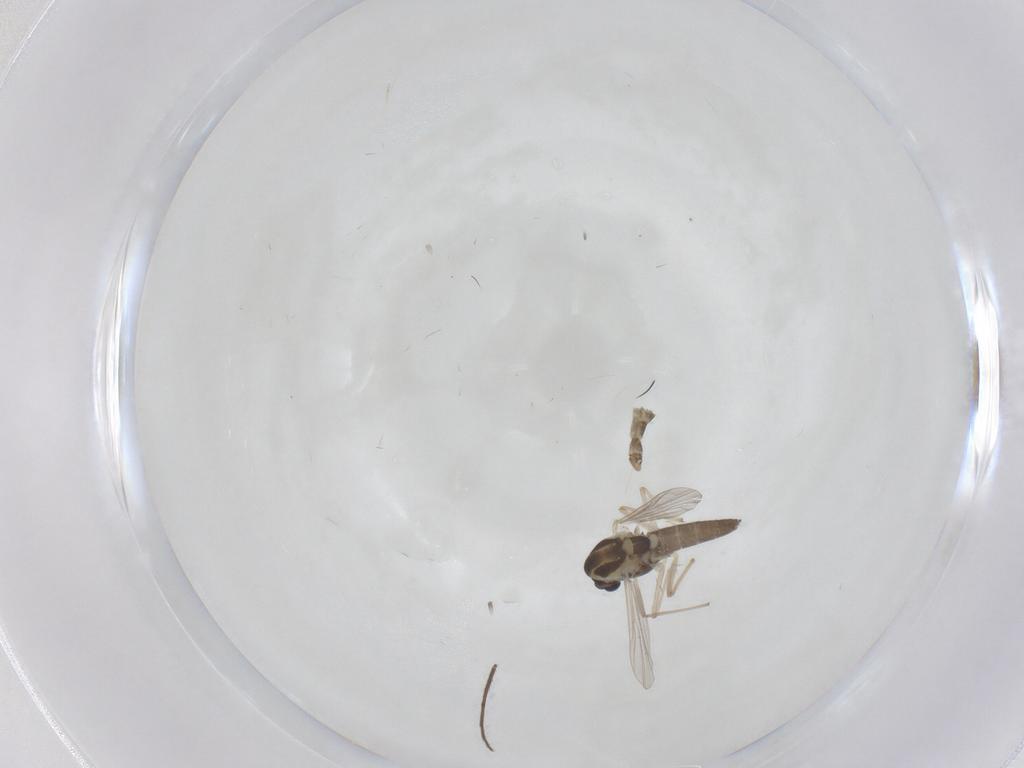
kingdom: Animalia
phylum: Arthropoda
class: Insecta
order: Diptera
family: Chironomidae
